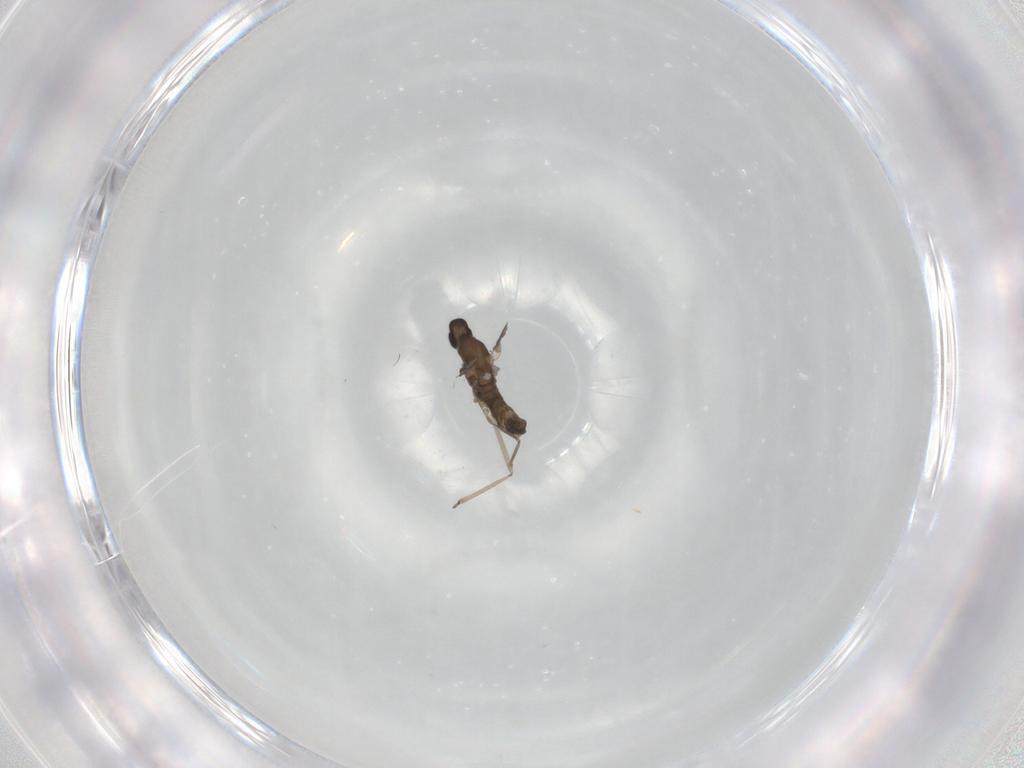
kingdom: Animalia
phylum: Arthropoda
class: Insecta
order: Diptera
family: Cecidomyiidae
